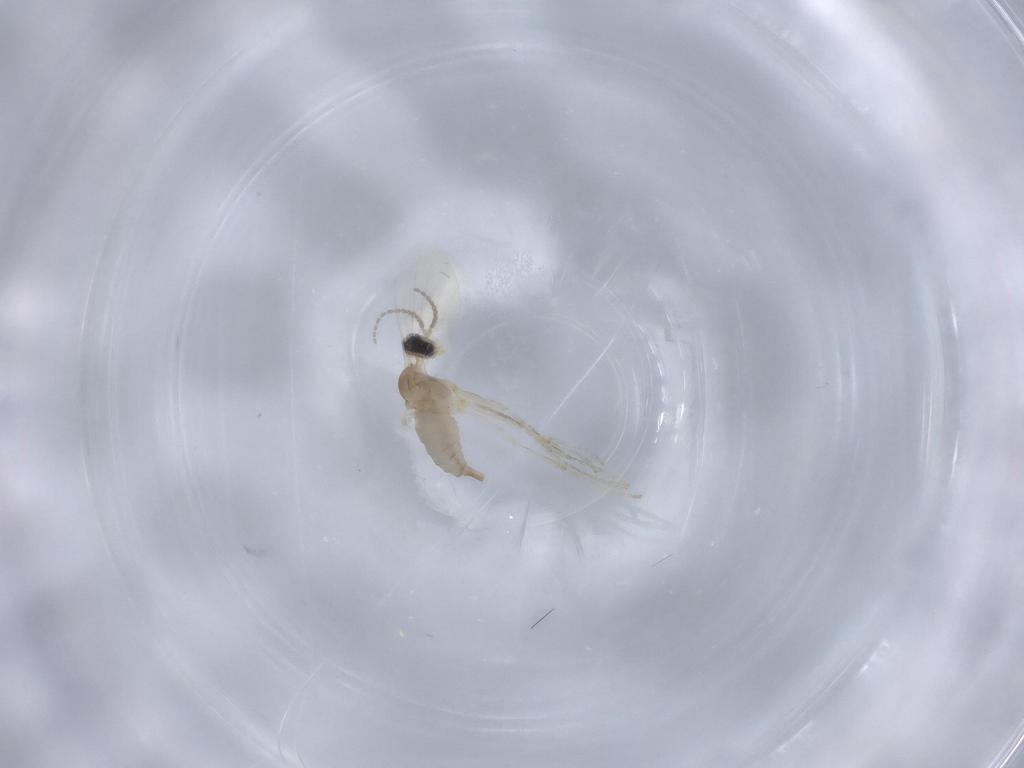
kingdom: Animalia
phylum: Arthropoda
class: Insecta
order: Diptera
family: Cecidomyiidae
